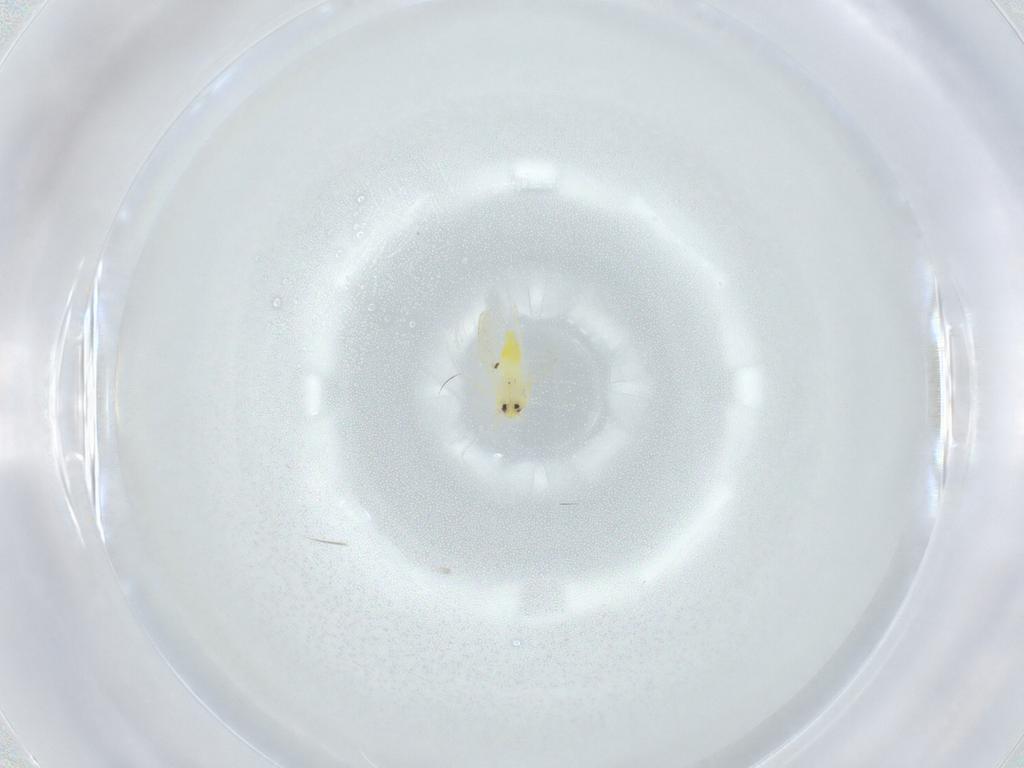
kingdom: Animalia
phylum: Arthropoda
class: Insecta
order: Hemiptera
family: Aleyrodidae
